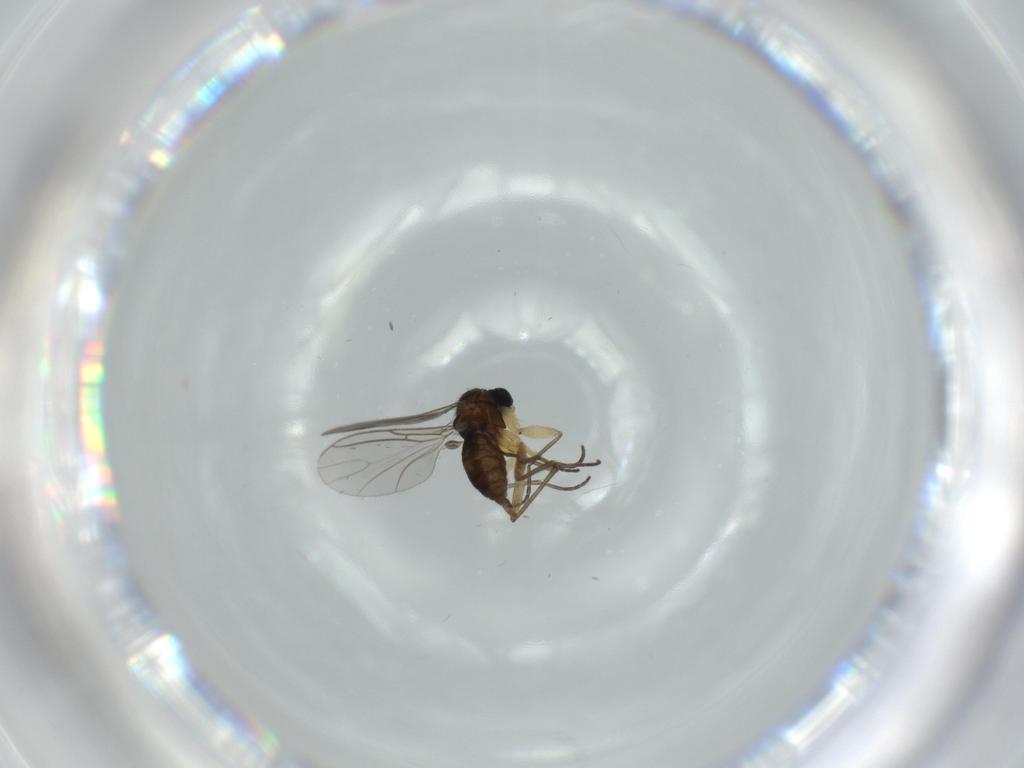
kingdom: Animalia
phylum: Arthropoda
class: Insecta
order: Diptera
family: Sciaridae
